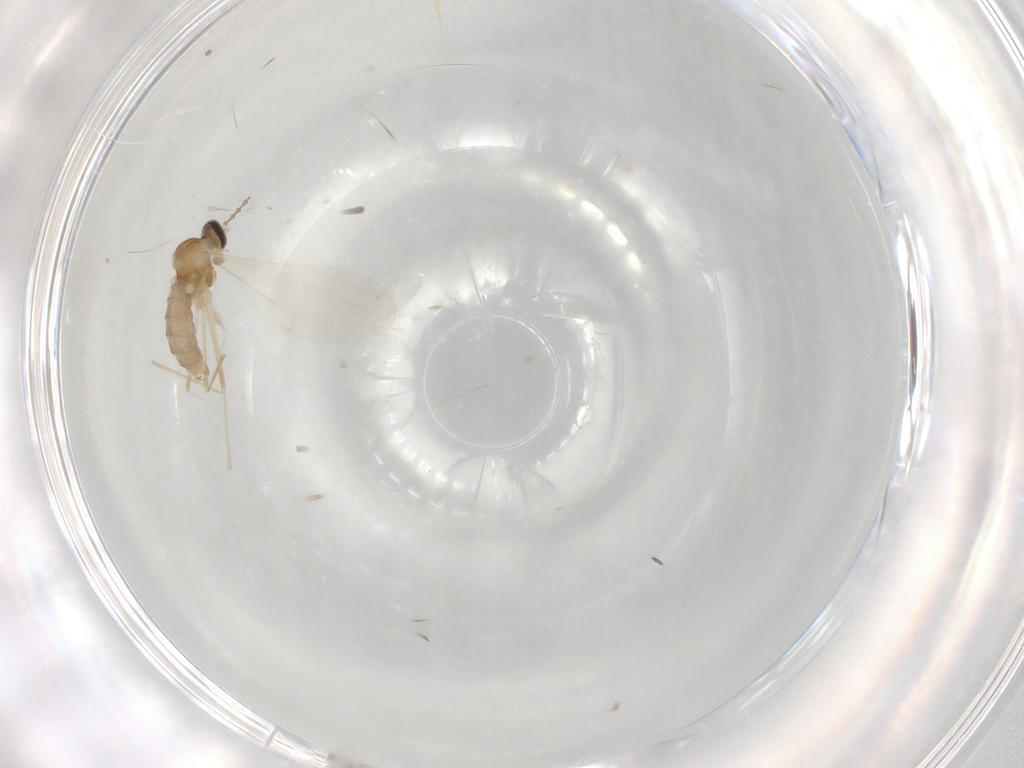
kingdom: Animalia
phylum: Arthropoda
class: Insecta
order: Diptera
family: Cecidomyiidae
